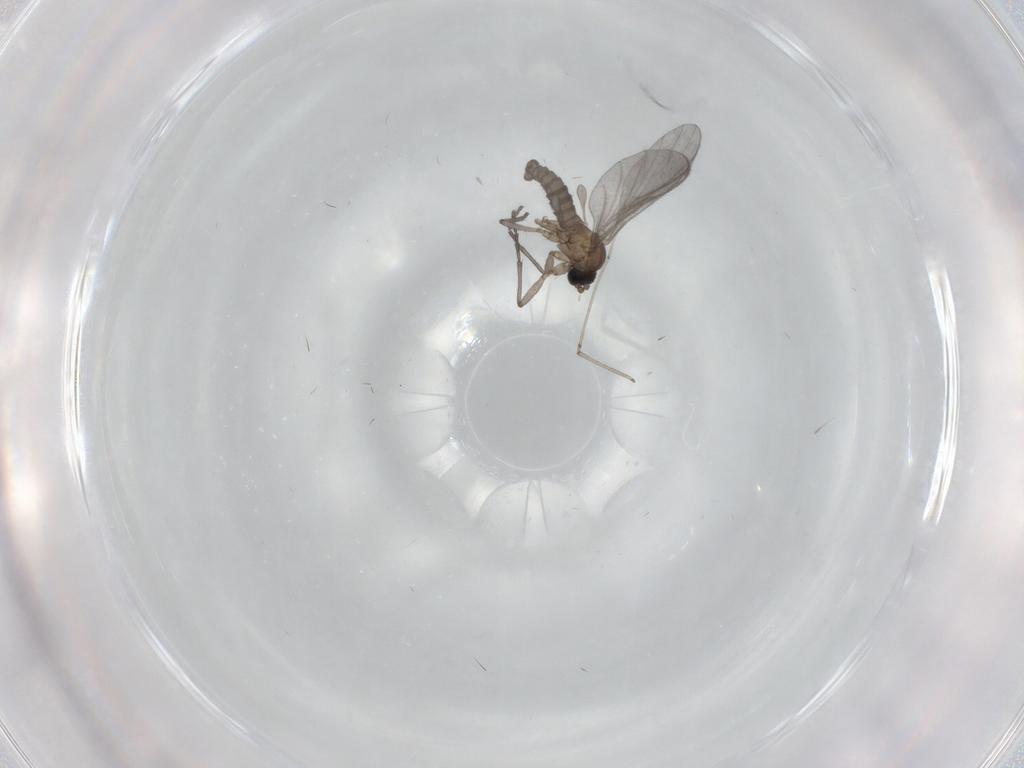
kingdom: Animalia
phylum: Arthropoda
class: Insecta
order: Diptera
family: Sciaridae
